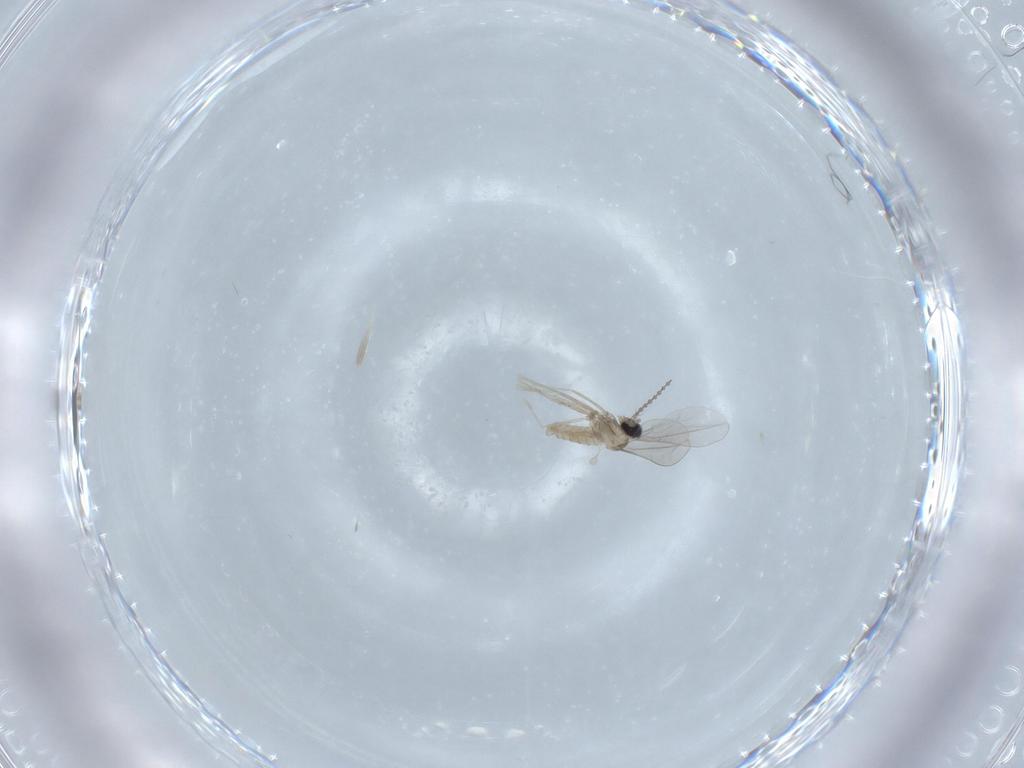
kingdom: Animalia
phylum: Arthropoda
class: Insecta
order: Diptera
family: Cecidomyiidae
